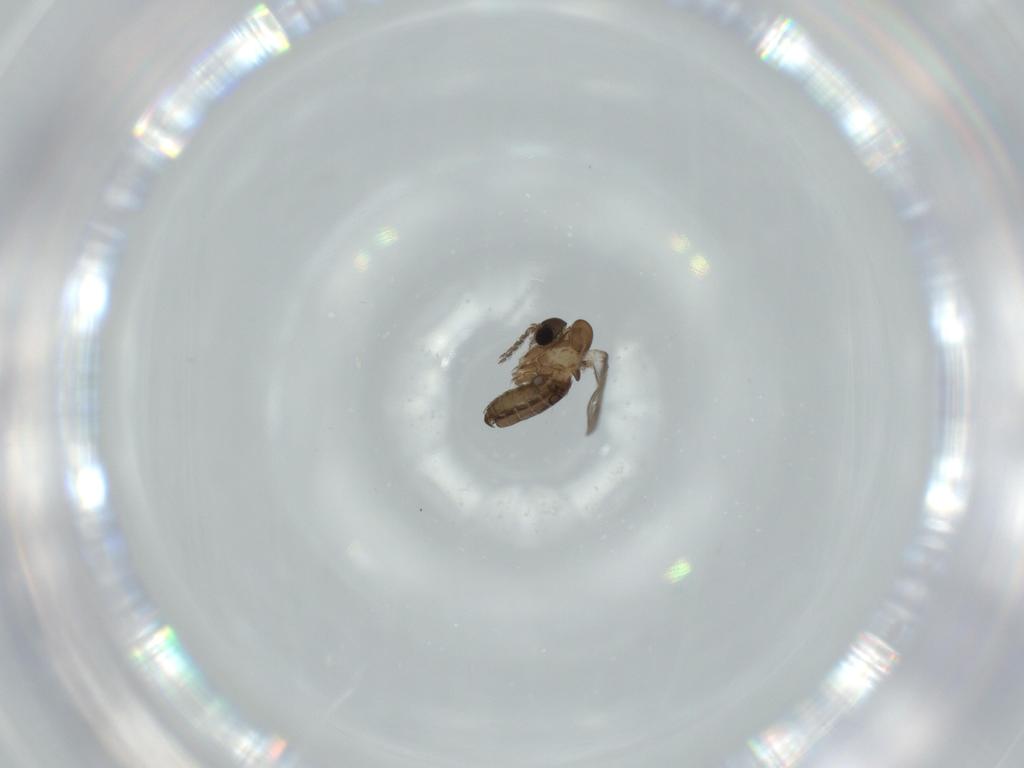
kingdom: Animalia
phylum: Arthropoda
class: Insecta
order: Diptera
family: Psychodidae
